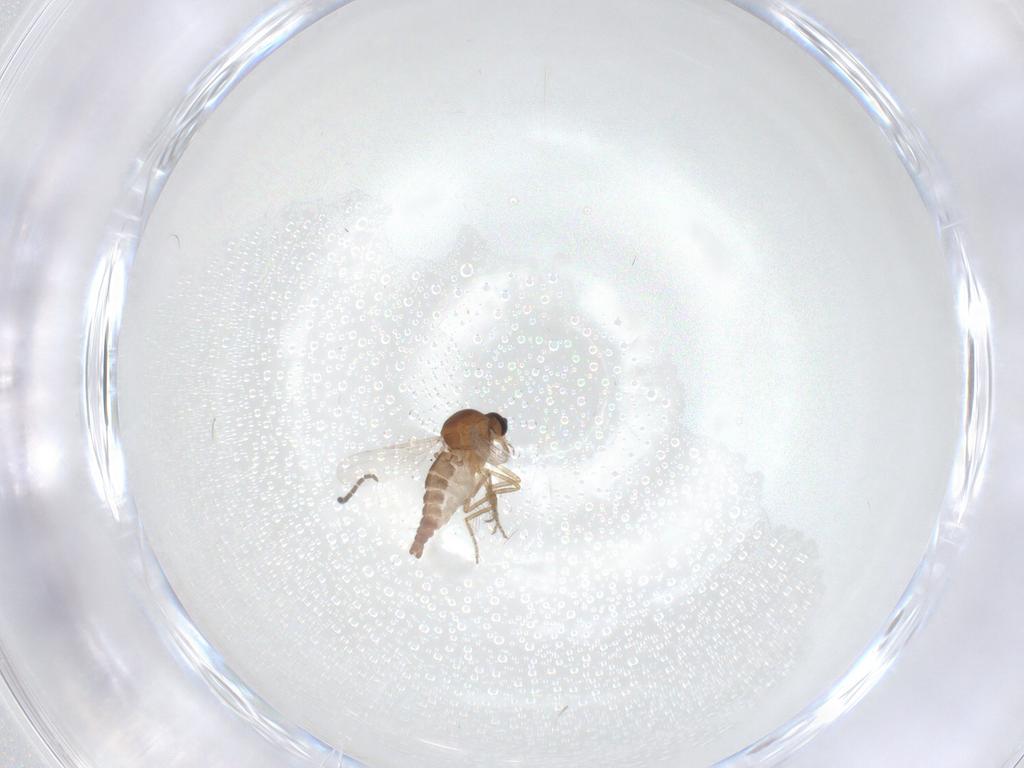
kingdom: Animalia
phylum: Arthropoda
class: Insecta
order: Diptera
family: Ceratopogonidae
